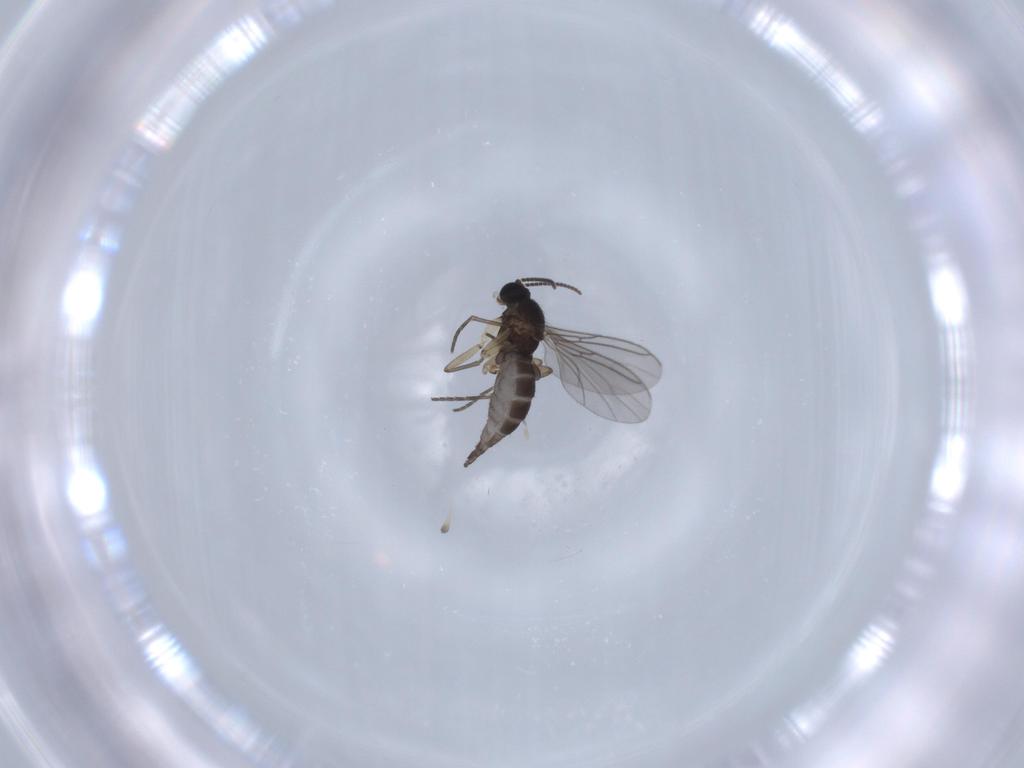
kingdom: Animalia
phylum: Arthropoda
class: Insecta
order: Diptera
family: Sciaridae
